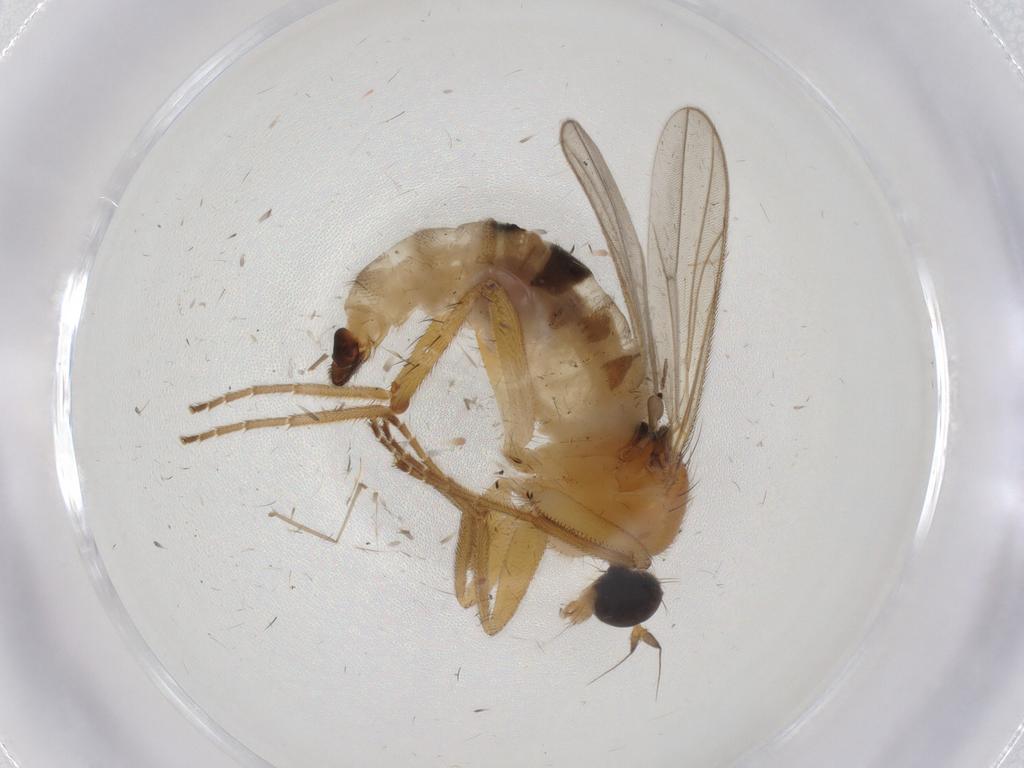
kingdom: Animalia
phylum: Arthropoda
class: Insecta
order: Diptera
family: Hybotidae
